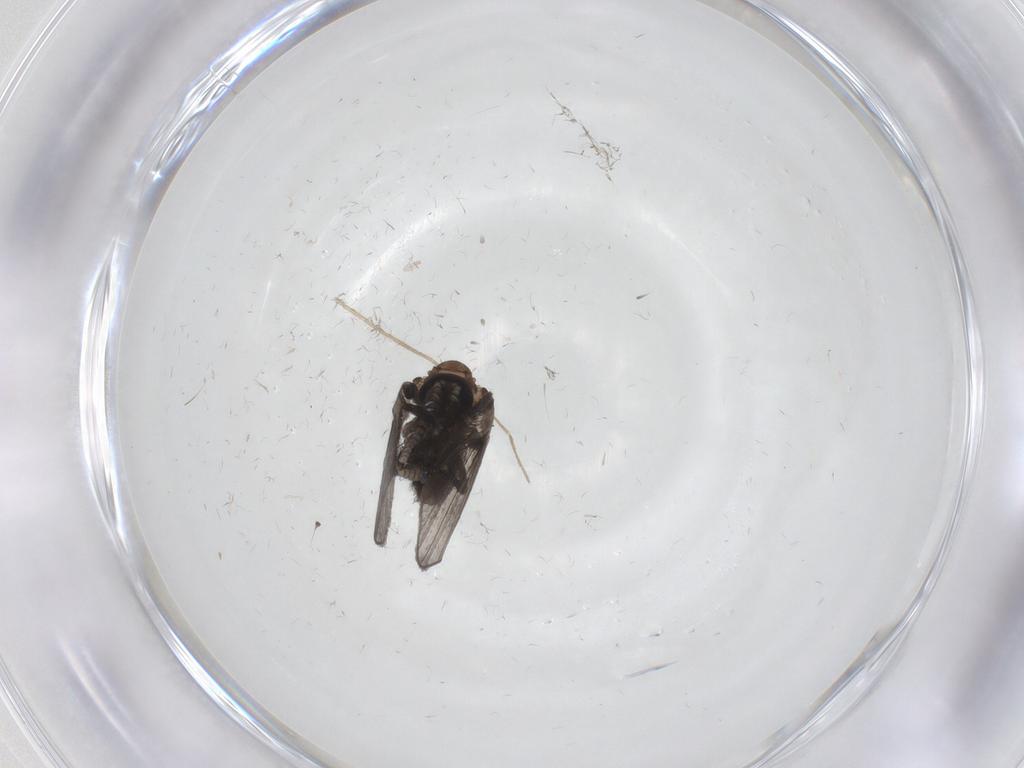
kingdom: Animalia
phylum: Arthropoda
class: Insecta
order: Diptera
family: Psychodidae
